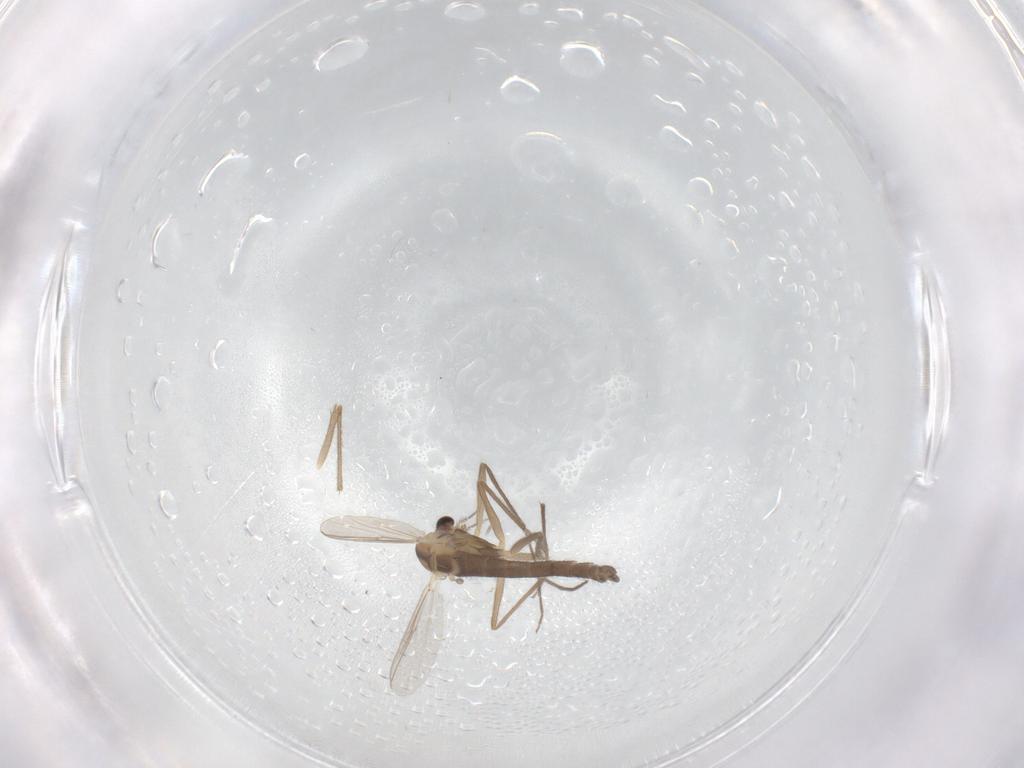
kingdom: Animalia
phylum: Arthropoda
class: Insecta
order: Diptera
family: Chironomidae
